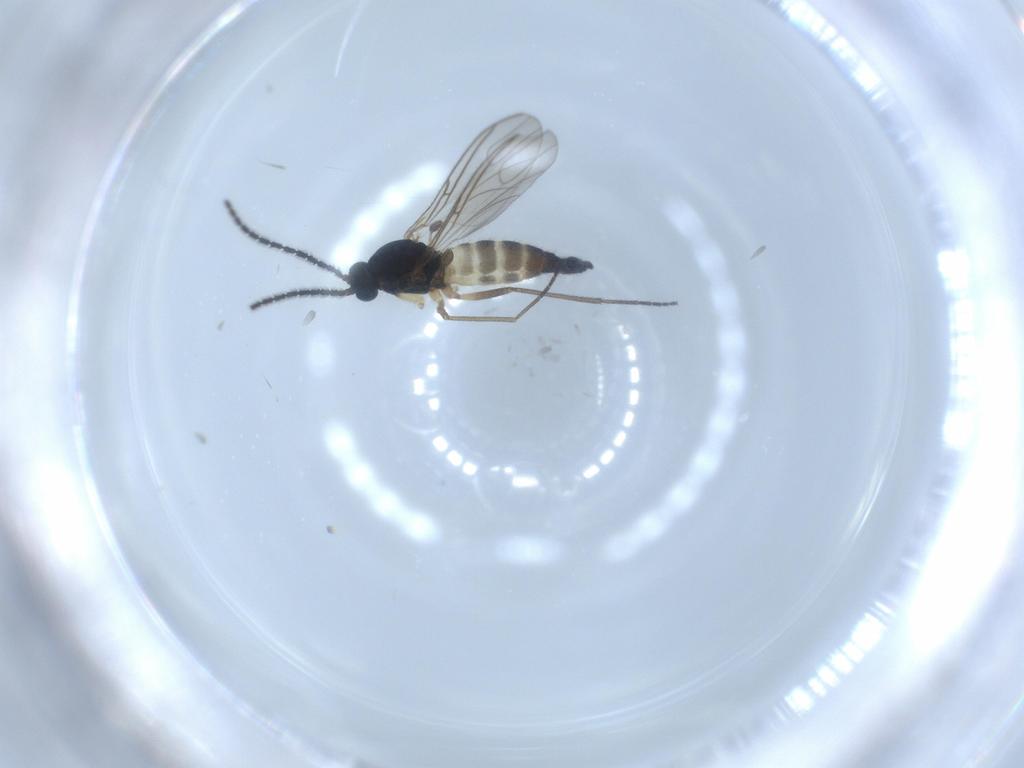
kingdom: Animalia
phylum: Arthropoda
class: Insecta
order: Diptera
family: Sciaridae
